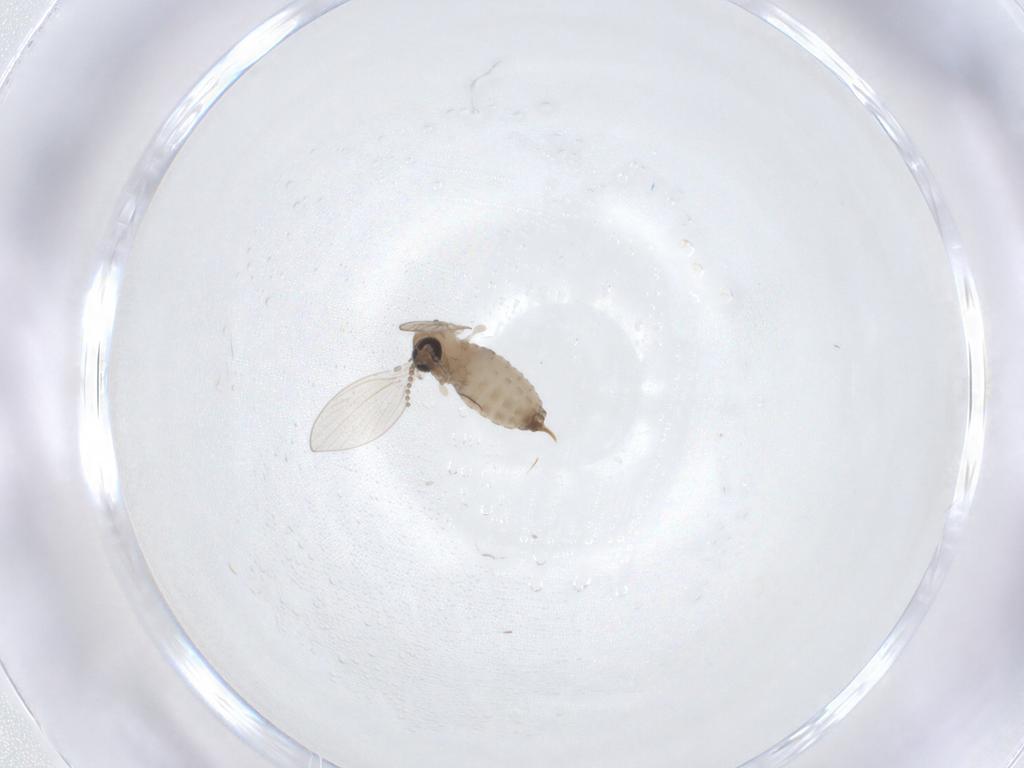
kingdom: Animalia
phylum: Arthropoda
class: Insecta
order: Diptera
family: Psychodidae
